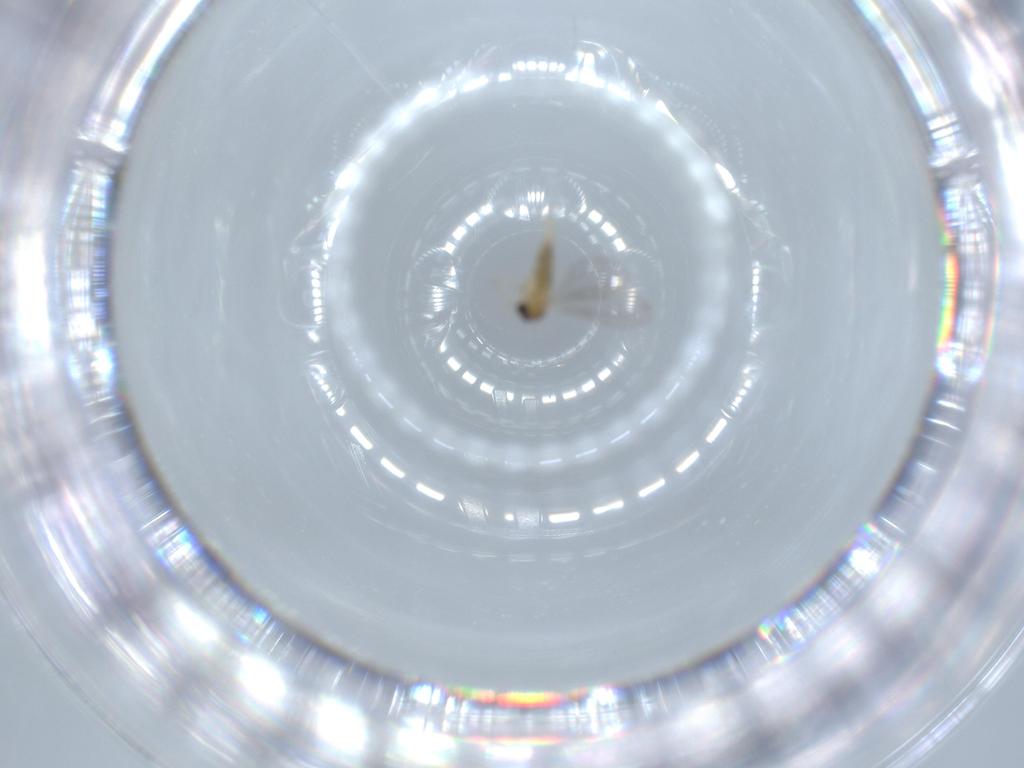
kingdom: Animalia
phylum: Arthropoda
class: Insecta
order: Diptera
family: Cecidomyiidae
